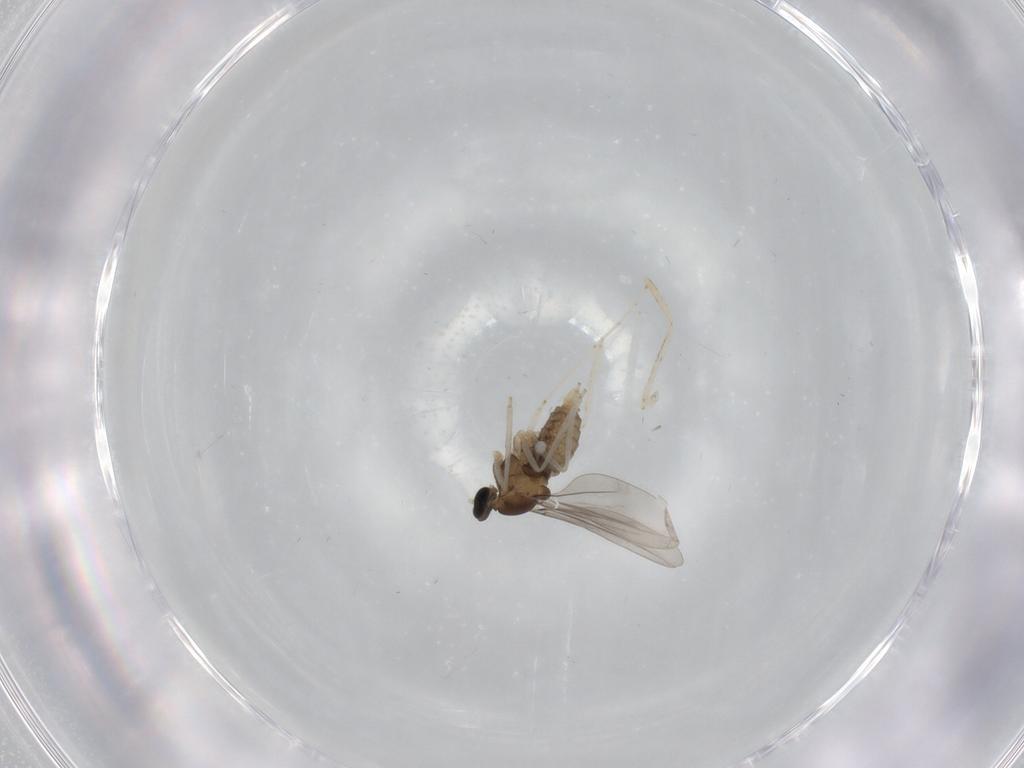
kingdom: Animalia
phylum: Arthropoda
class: Insecta
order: Diptera
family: Cecidomyiidae
